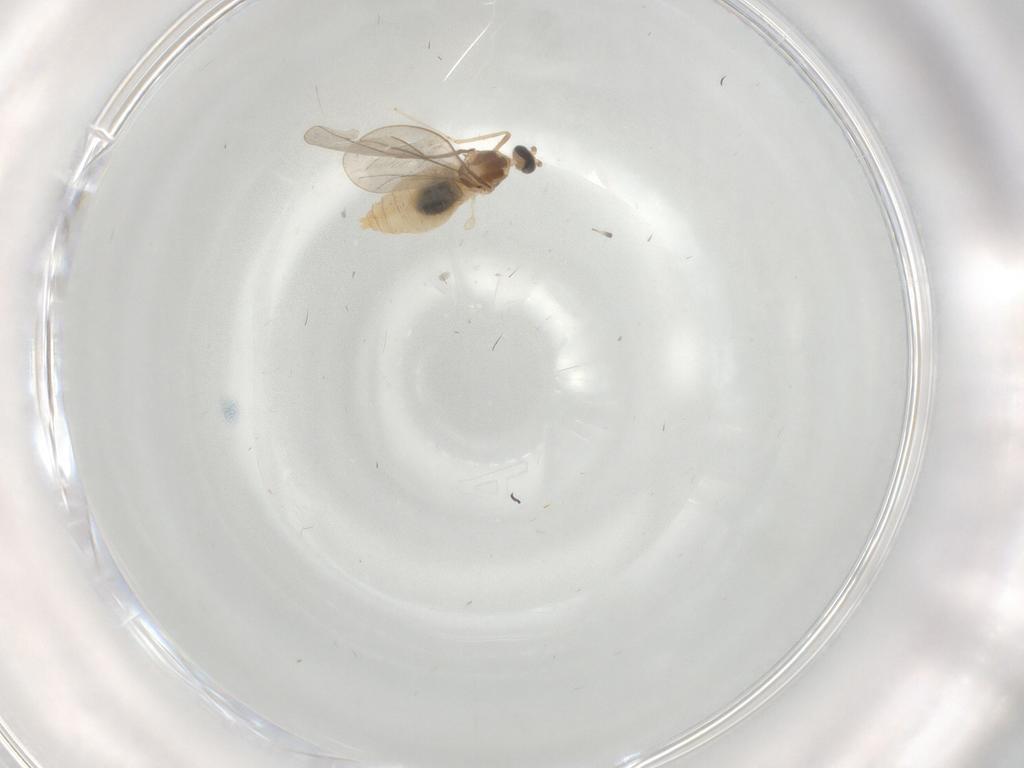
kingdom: Animalia
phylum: Arthropoda
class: Insecta
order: Diptera
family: Cecidomyiidae
